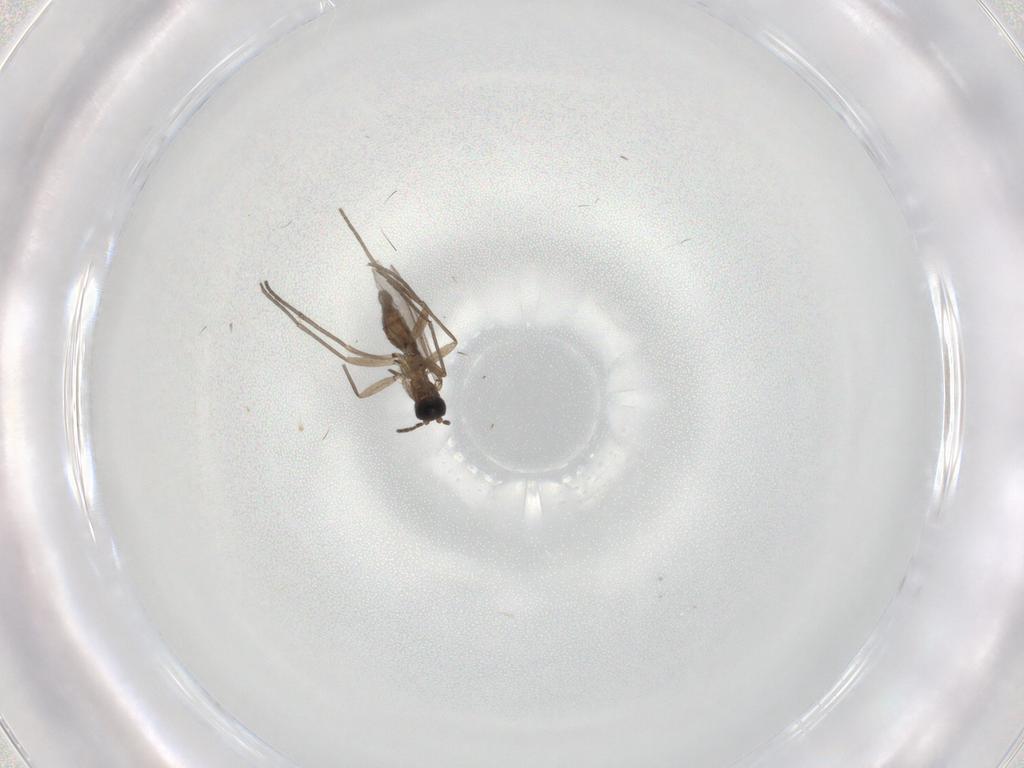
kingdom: Animalia
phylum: Arthropoda
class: Insecta
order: Diptera
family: Sciaridae
